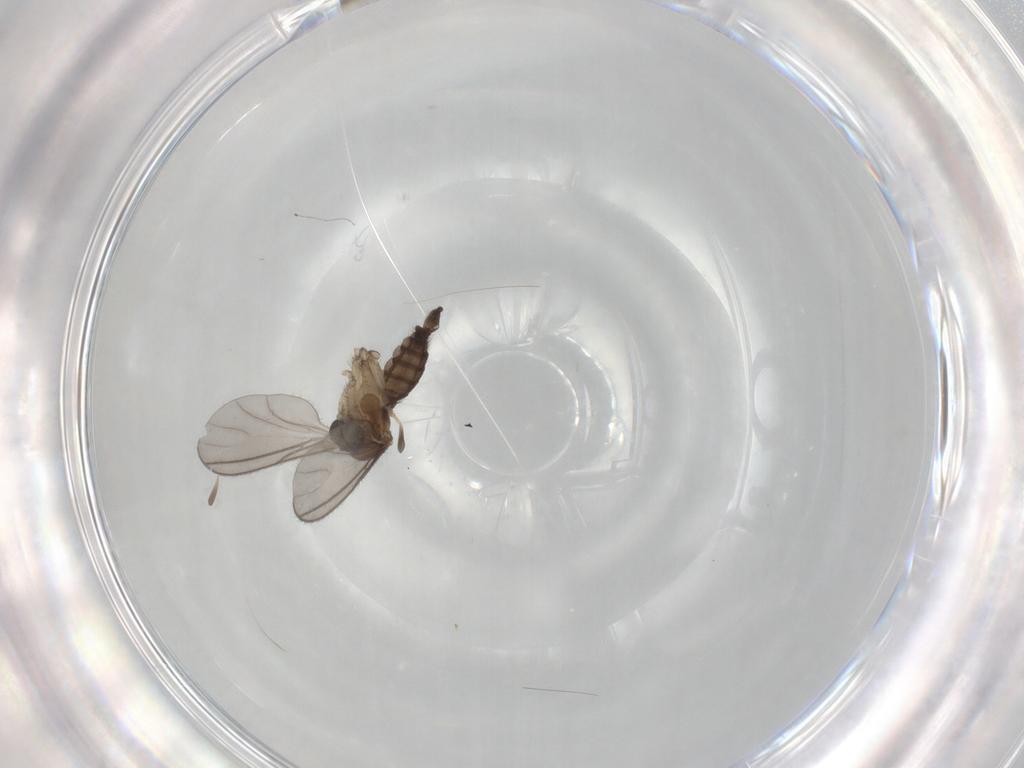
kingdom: Animalia
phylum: Arthropoda
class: Insecta
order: Diptera
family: Sciaridae
